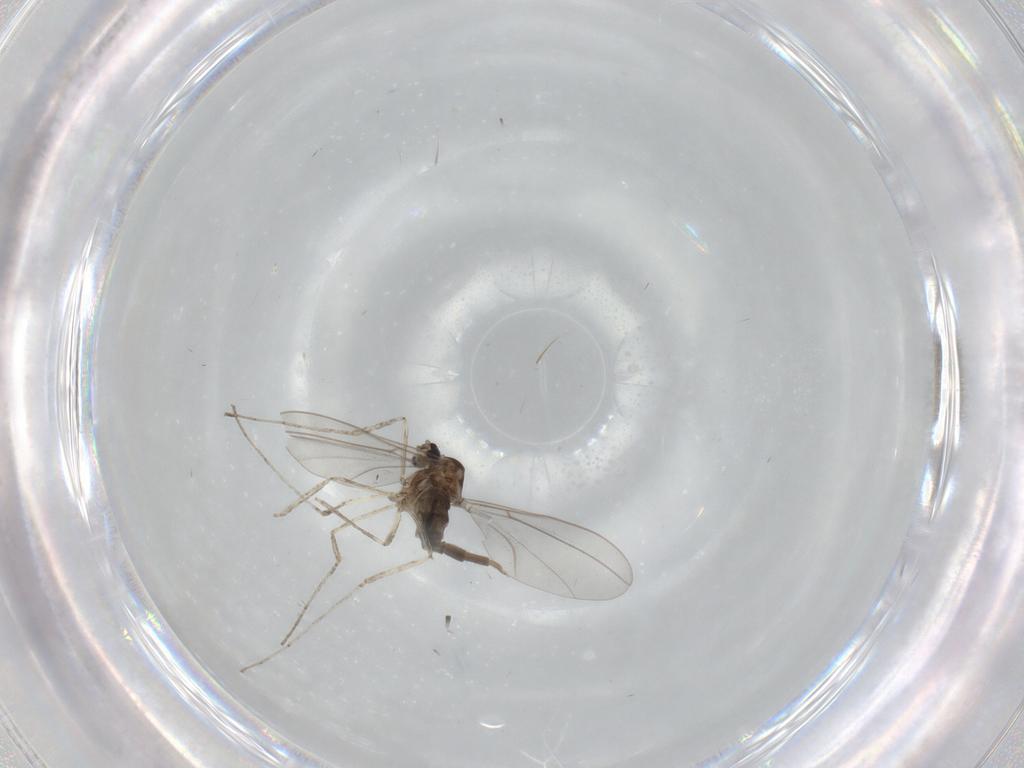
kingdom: Animalia
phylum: Arthropoda
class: Insecta
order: Diptera
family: Cecidomyiidae
